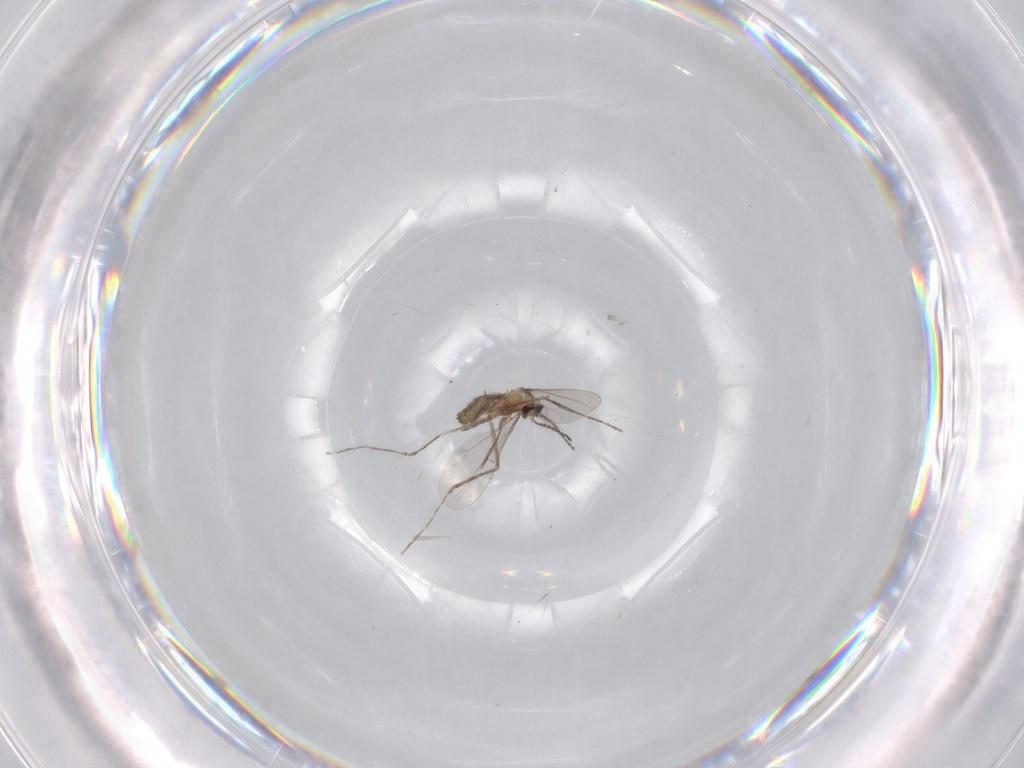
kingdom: Animalia
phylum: Arthropoda
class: Insecta
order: Diptera
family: Cecidomyiidae
